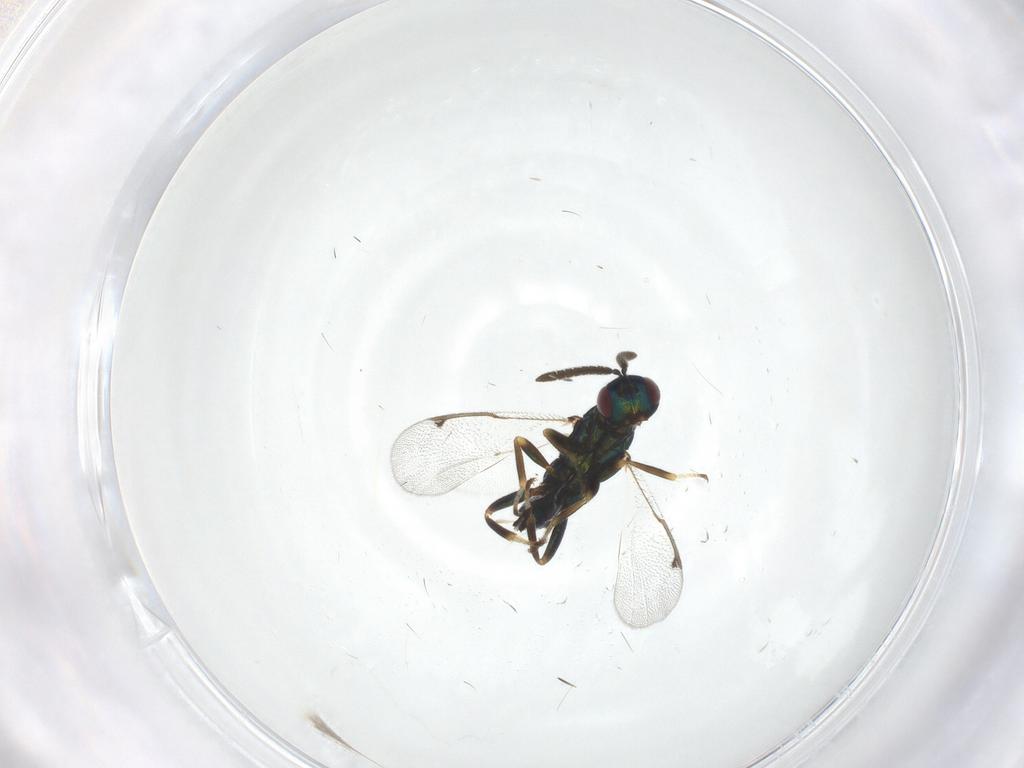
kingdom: Animalia
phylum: Arthropoda
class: Insecta
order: Hymenoptera
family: Torymidae
